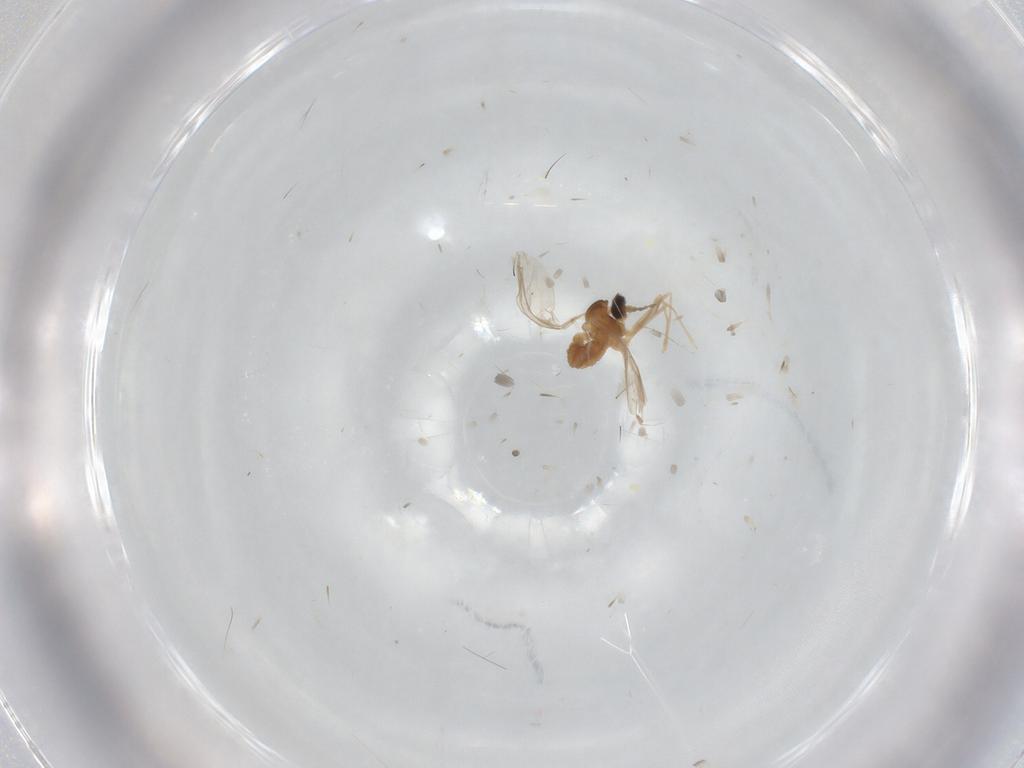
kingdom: Animalia
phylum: Arthropoda
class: Insecta
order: Diptera
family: Cecidomyiidae
